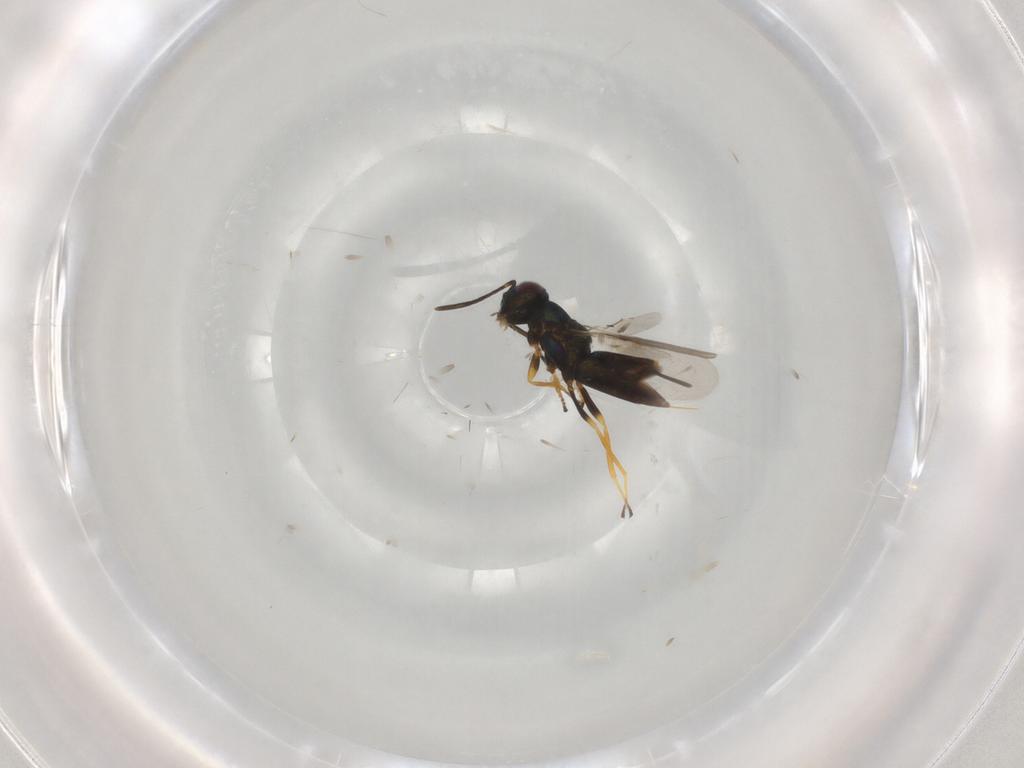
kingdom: Animalia
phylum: Arthropoda
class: Insecta
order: Hymenoptera
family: Encyrtidae
